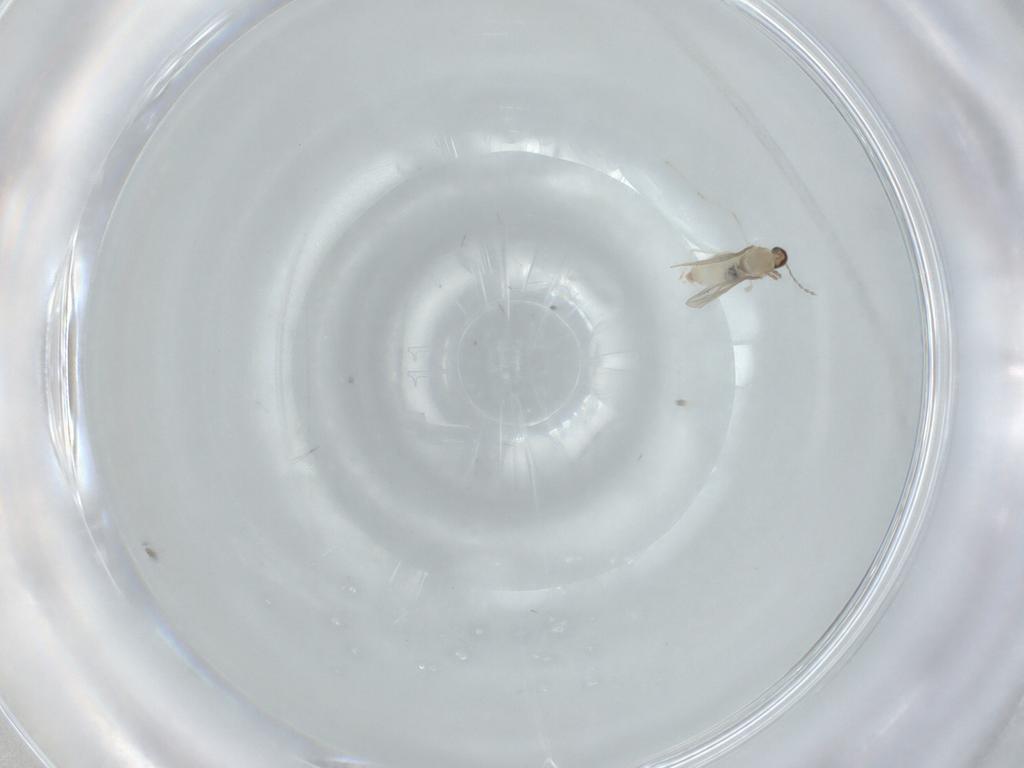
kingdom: Animalia
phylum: Arthropoda
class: Insecta
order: Diptera
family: Cecidomyiidae
